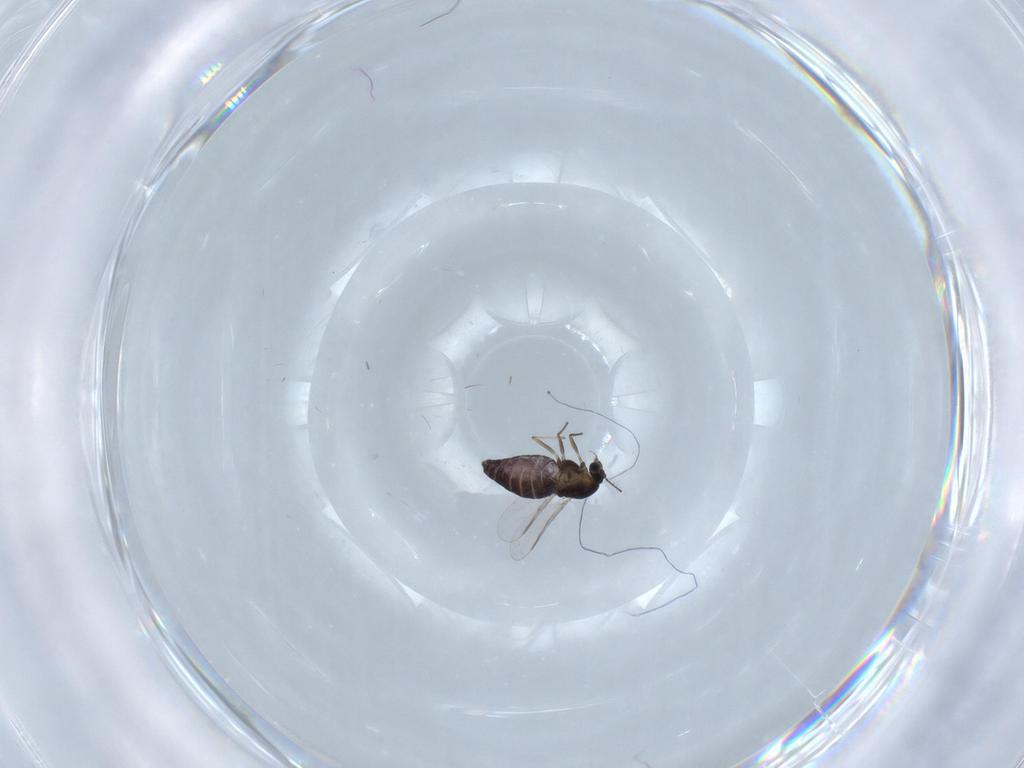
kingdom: Animalia
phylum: Arthropoda
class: Insecta
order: Diptera
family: Chironomidae
